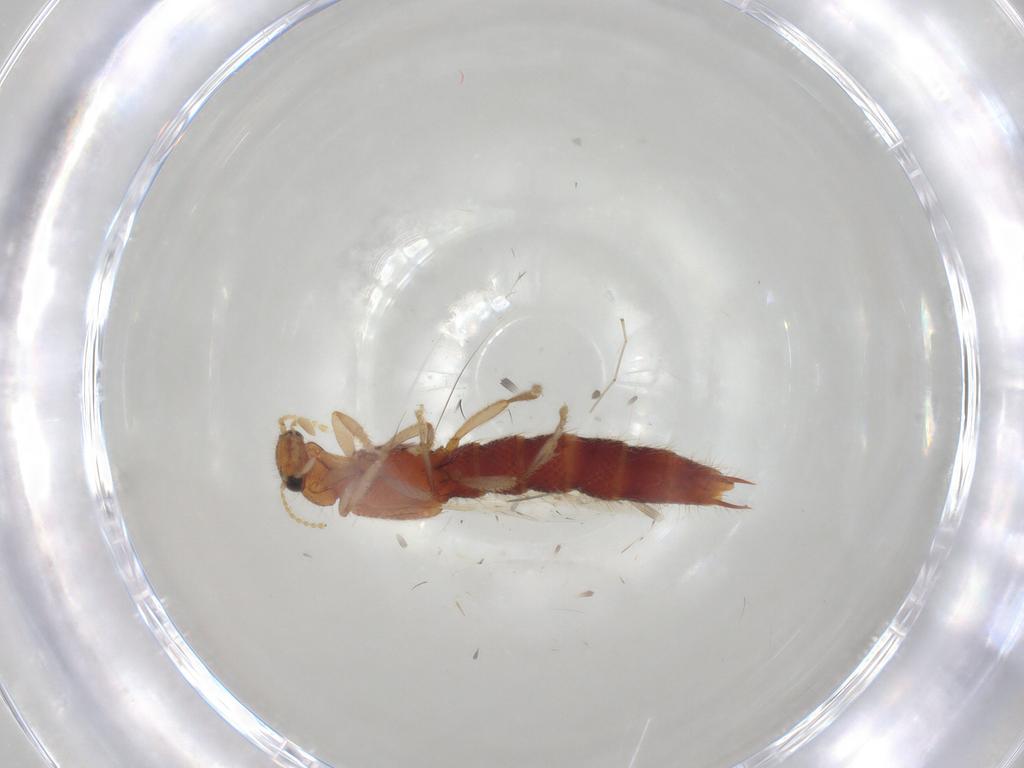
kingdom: Animalia
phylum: Arthropoda
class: Insecta
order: Coleoptera
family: Staphylinidae
